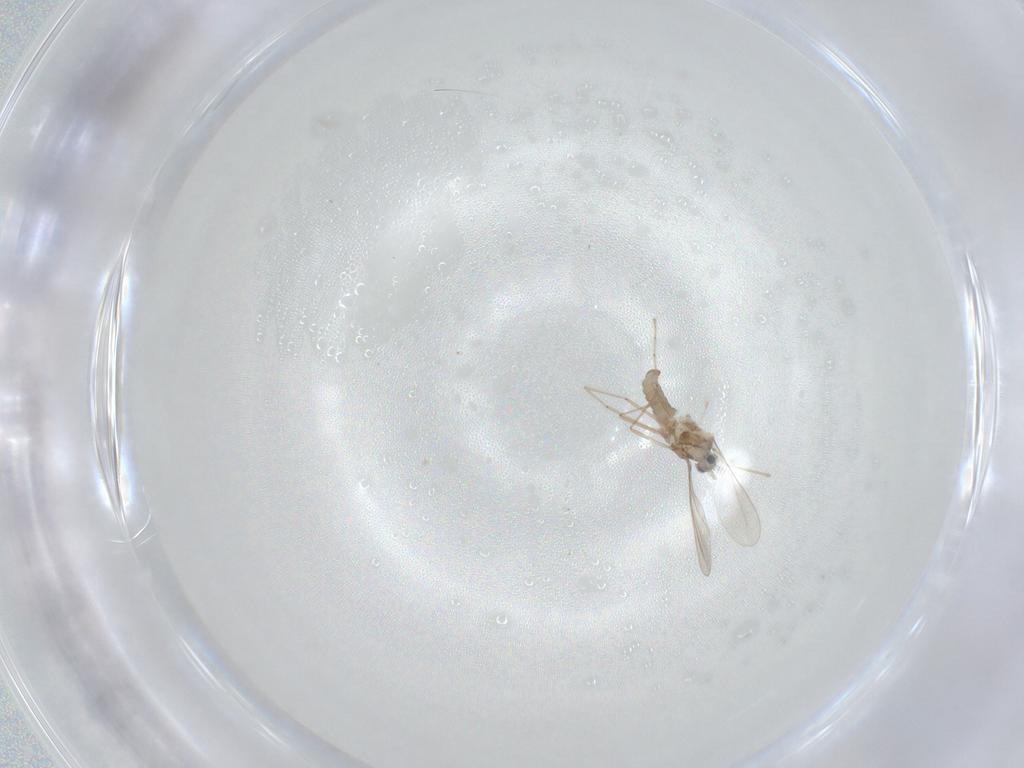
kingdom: Animalia
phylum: Arthropoda
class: Insecta
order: Diptera
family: Cecidomyiidae
